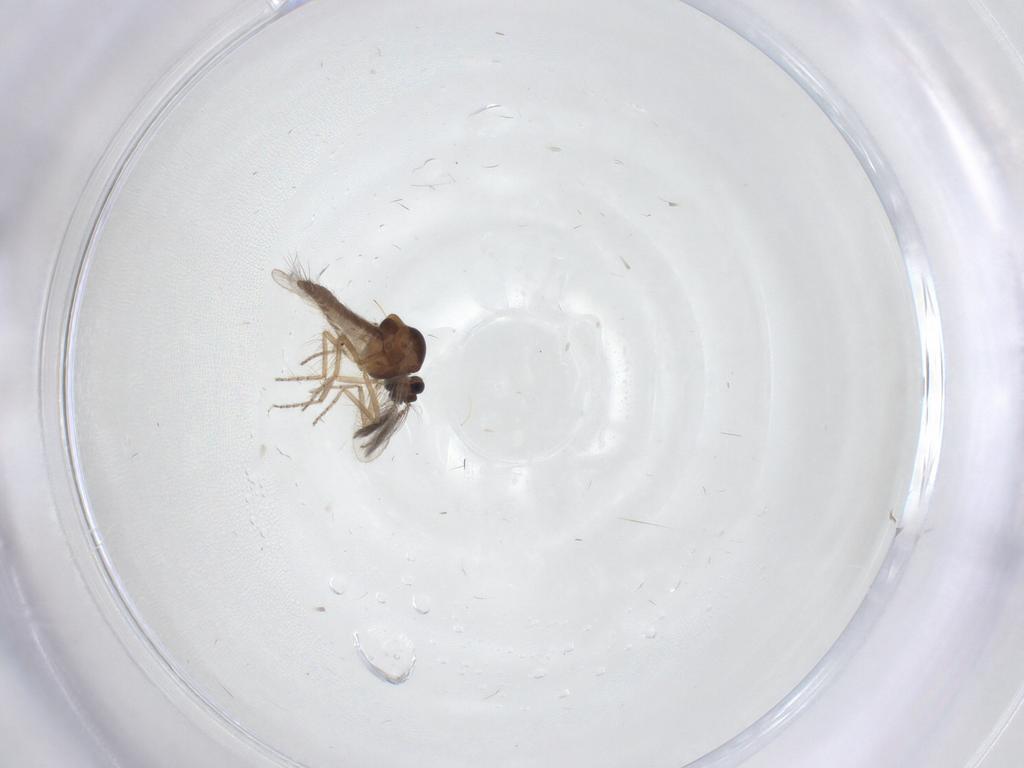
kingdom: Animalia
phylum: Arthropoda
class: Insecta
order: Diptera
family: Ceratopogonidae
